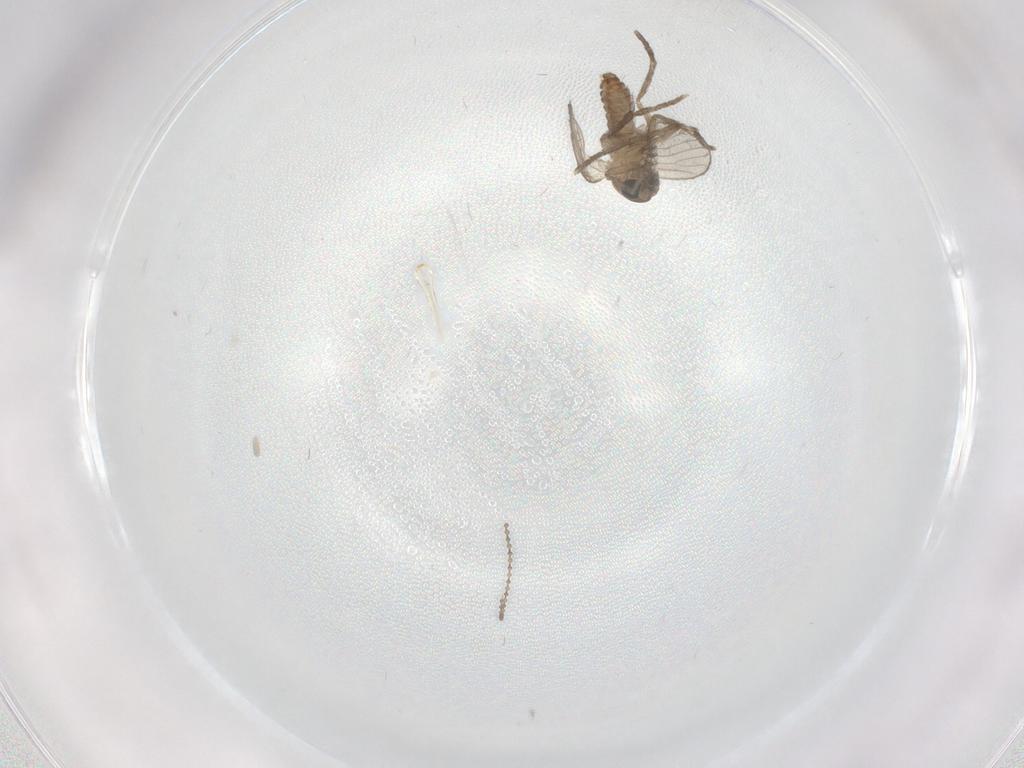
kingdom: Animalia
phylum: Arthropoda
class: Insecta
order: Diptera
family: Cecidomyiidae
